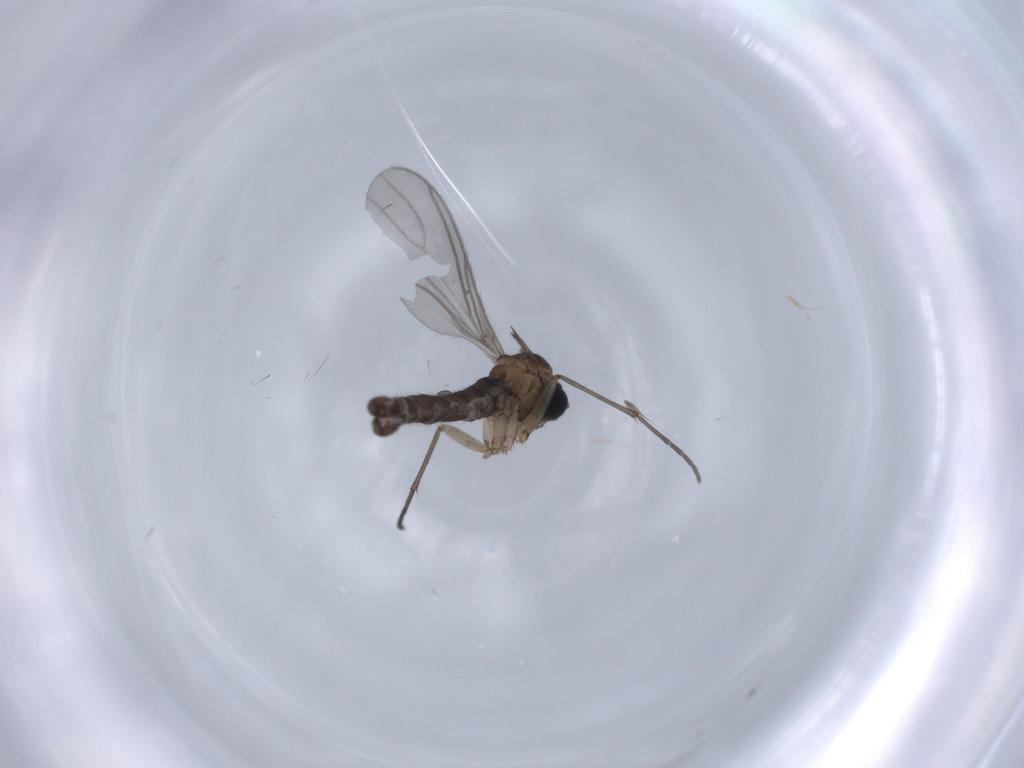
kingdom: Animalia
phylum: Arthropoda
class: Insecta
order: Diptera
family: Sciaridae
